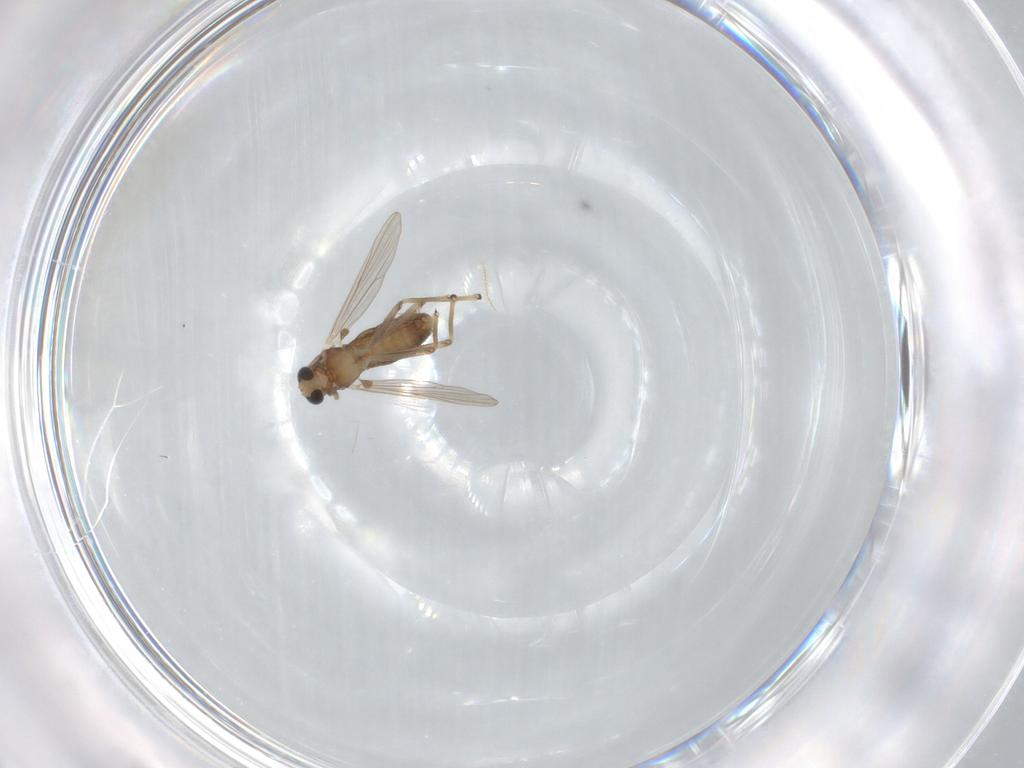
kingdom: Animalia
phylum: Arthropoda
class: Insecta
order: Diptera
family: Chironomidae
